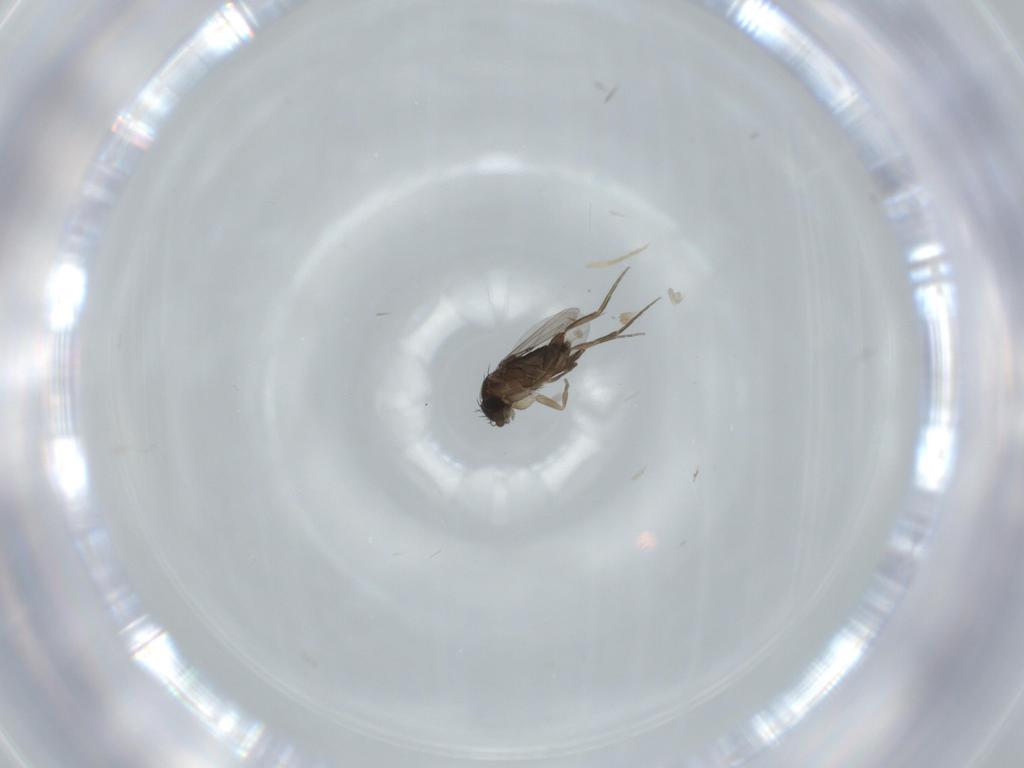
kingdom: Animalia
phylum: Arthropoda
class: Insecta
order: Diptera
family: Phoridae
